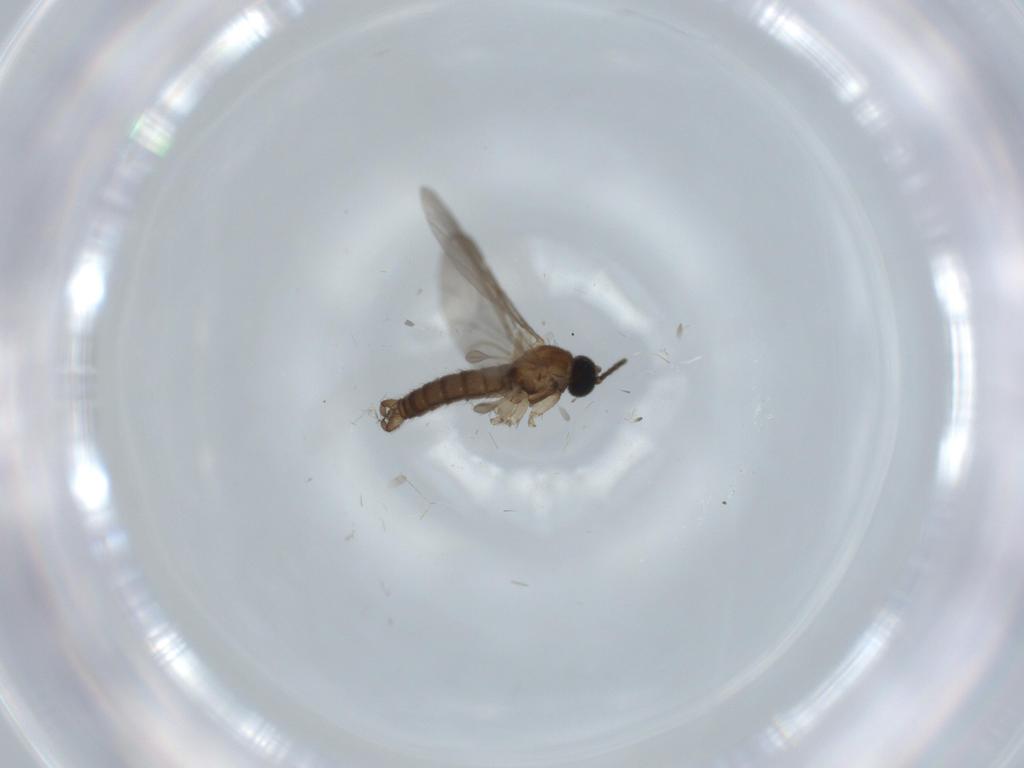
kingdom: Animalia
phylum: Arthropoda
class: Insecta
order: Diptera
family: Sciaridae
